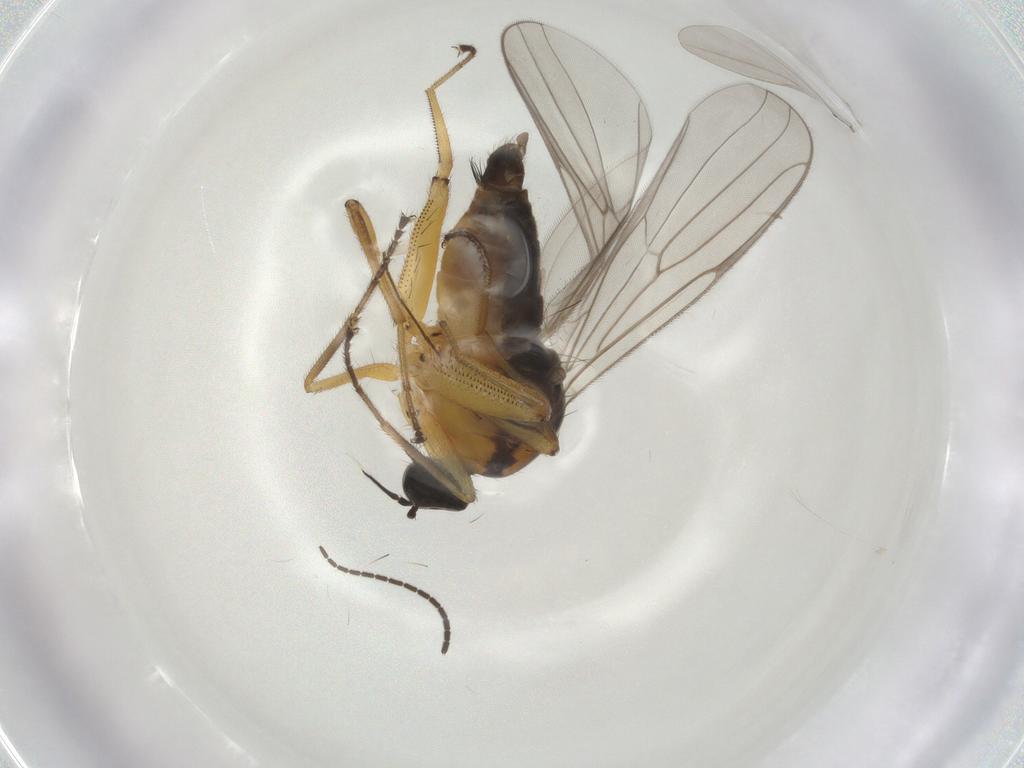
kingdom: Animalia
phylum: Arthropoda
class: Insecta
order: Diptera
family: Hybotidae
